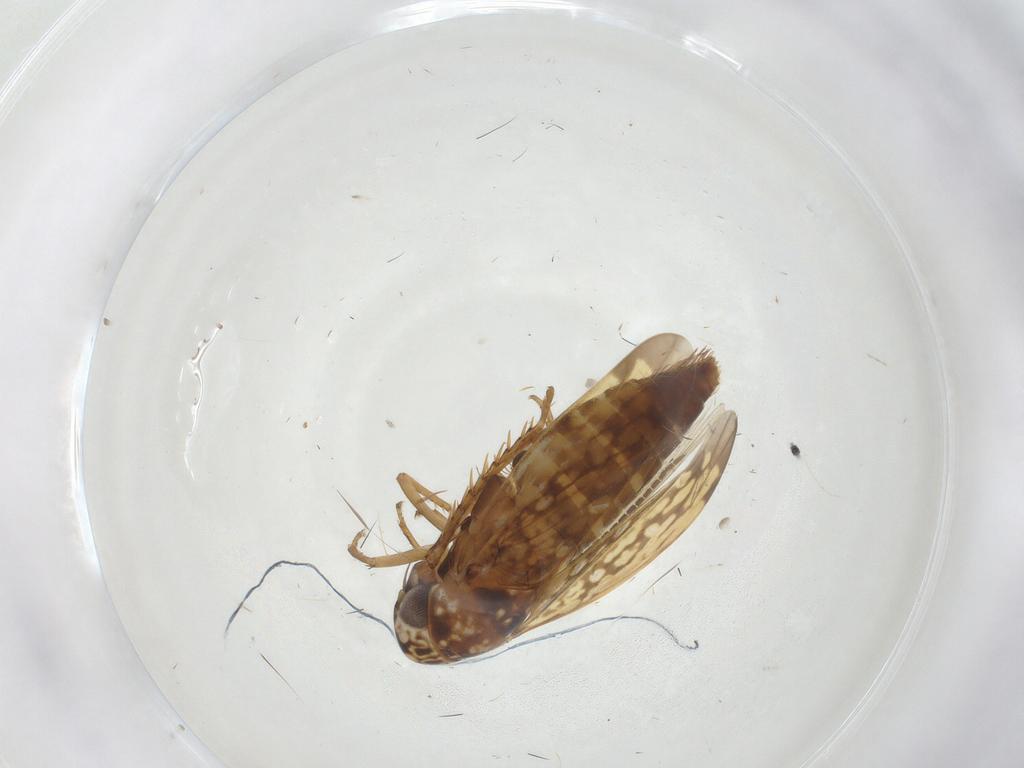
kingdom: Animalia
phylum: Arthropoda
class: Insecta
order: Hemiptera
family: Cicadellidae
